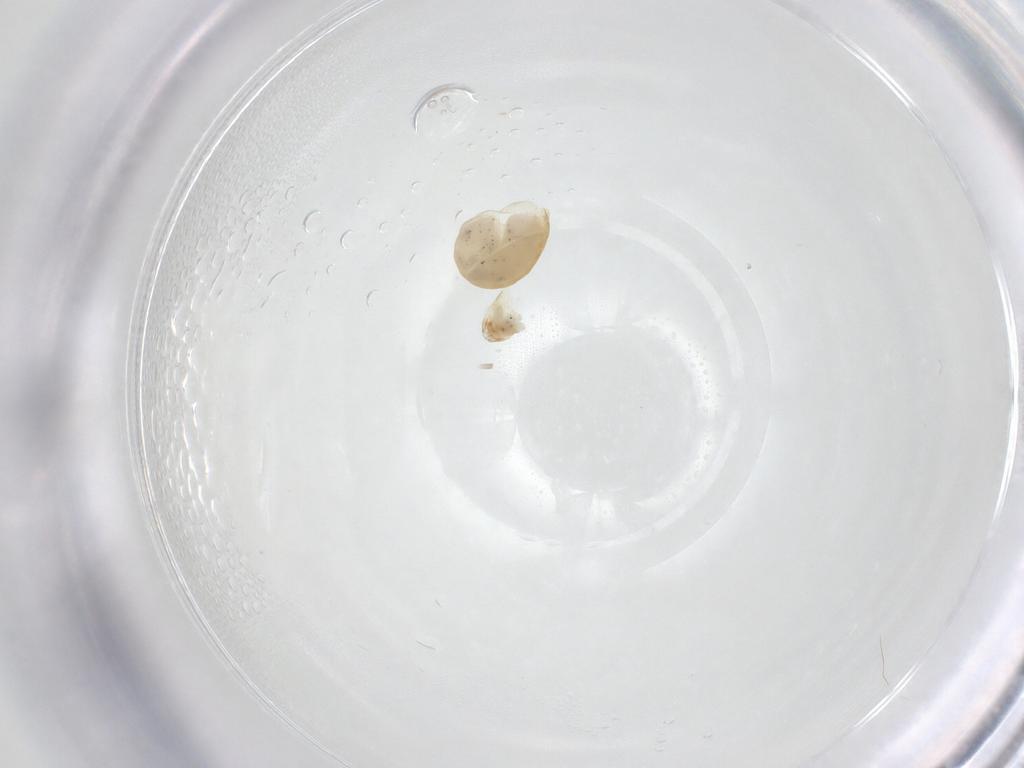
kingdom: Animalia
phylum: Arthropoda
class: Insecta
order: Hymenoptera
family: Dryinidae
